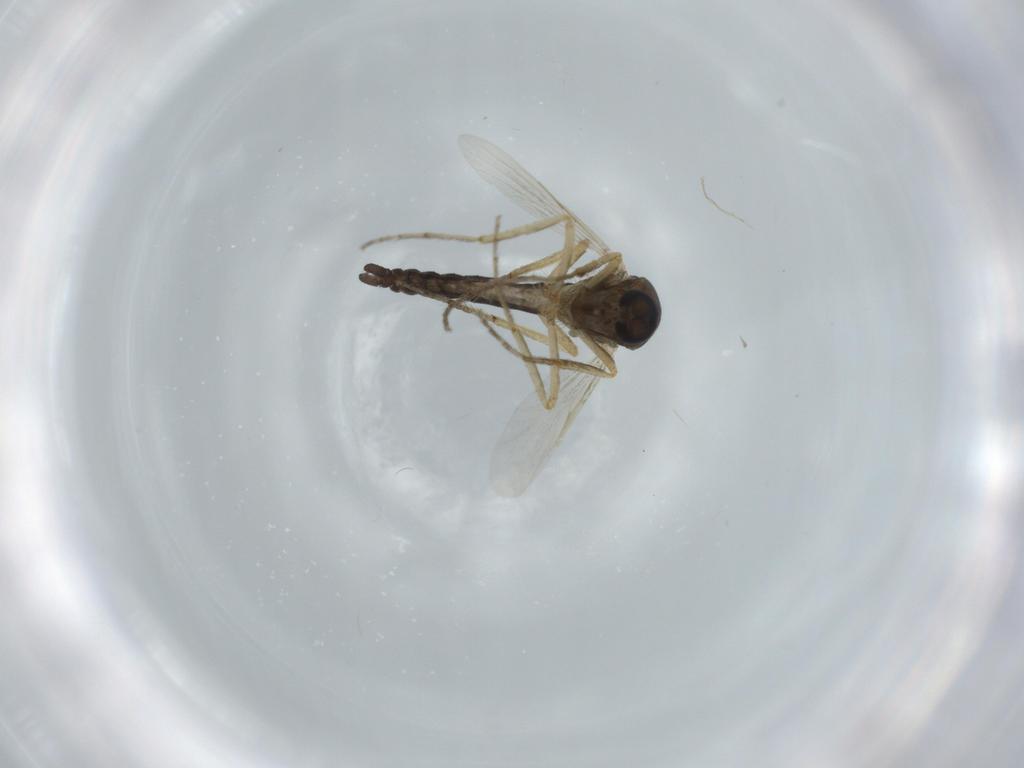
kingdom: Animalia
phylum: Arthropoda
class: Insecta
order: Diptera
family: Ceratopogonidae
